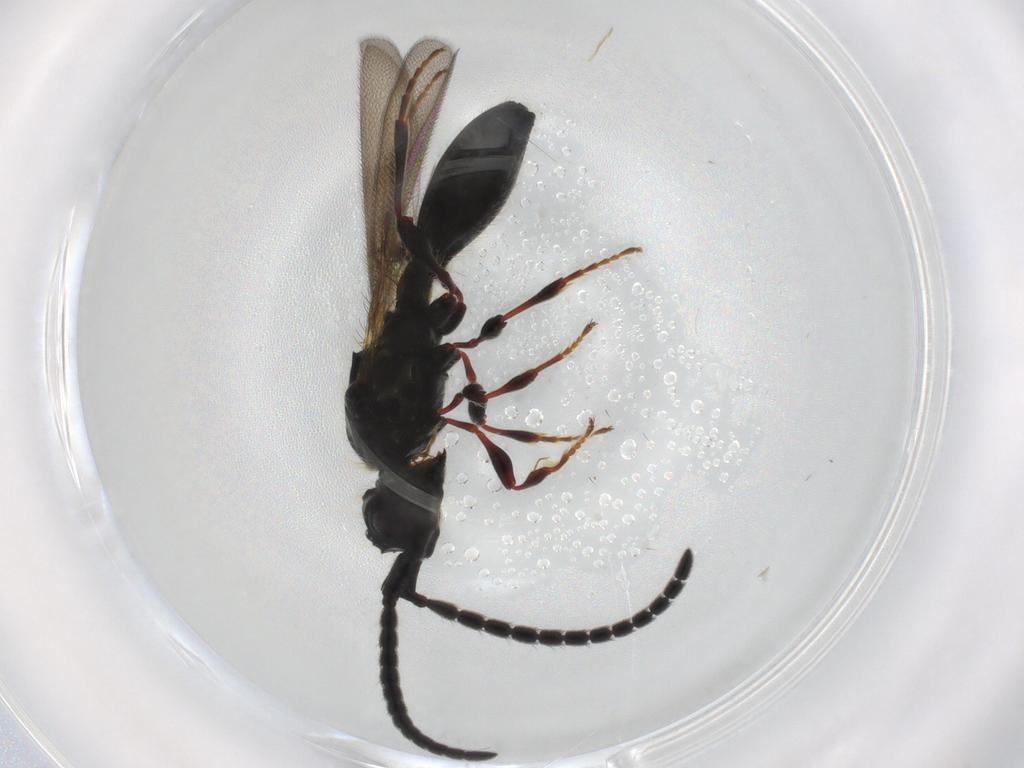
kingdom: Animalia
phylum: Arthropoda
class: Insecta
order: Hymenoptera
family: Diapriidae
